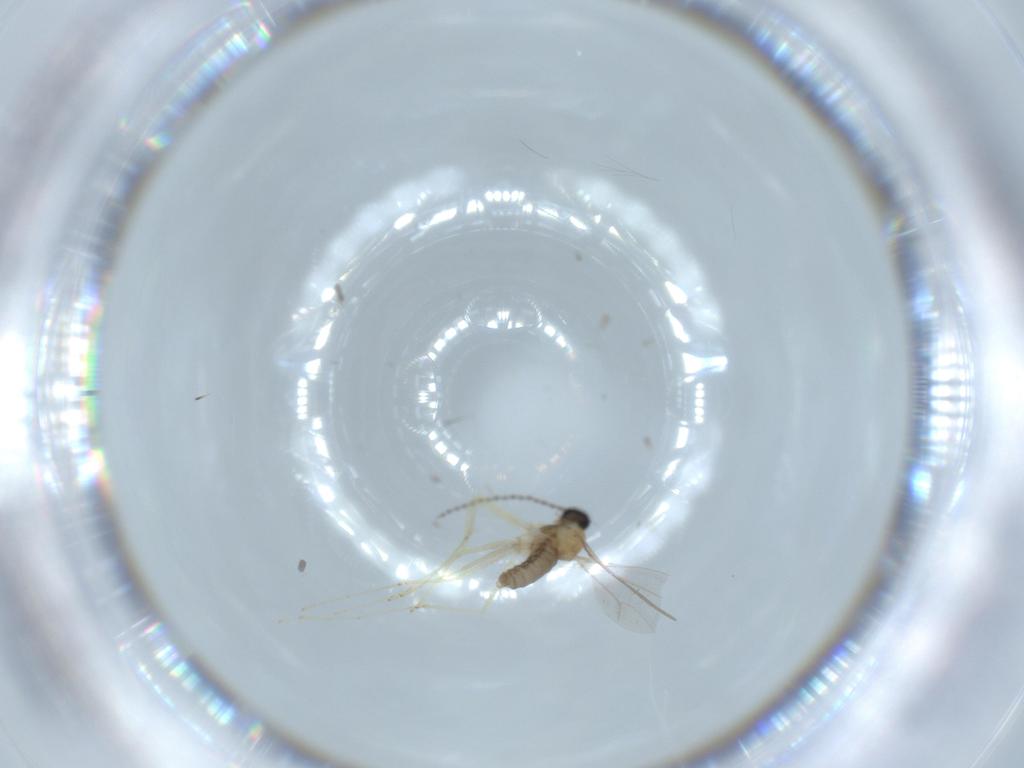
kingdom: Animalia
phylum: Arthropoda
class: Insecta
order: Diptera
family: Cecidomyiidae
